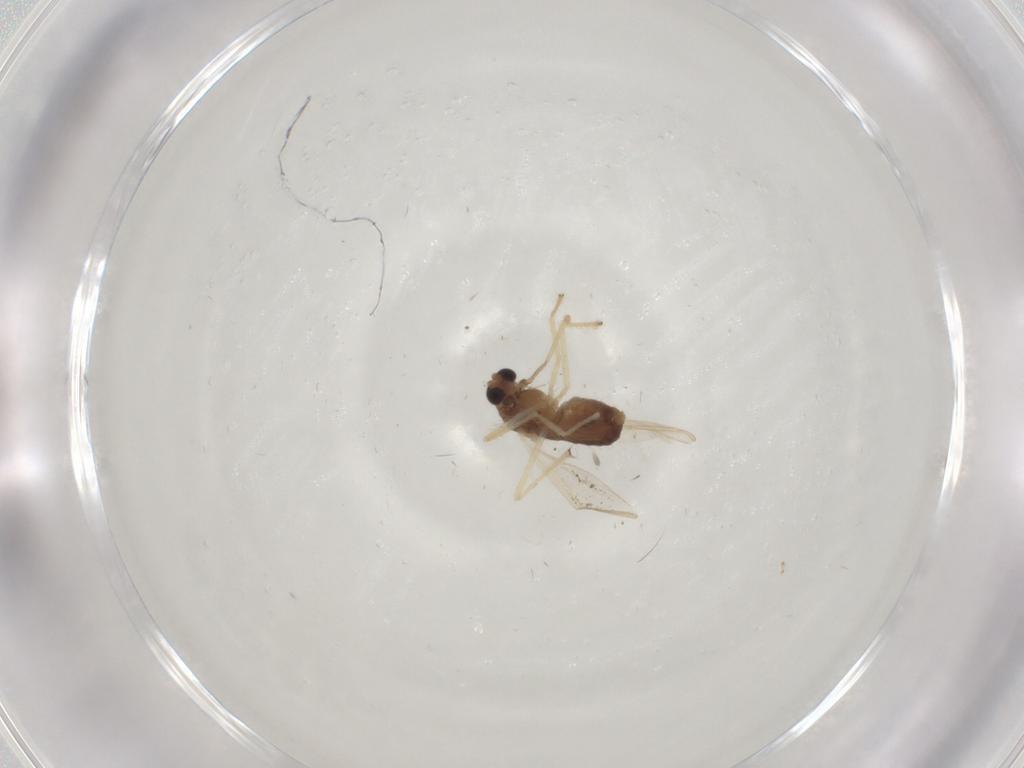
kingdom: Animalia
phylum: Arthropoda
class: Insecta
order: Diptera
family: Chironomidae
